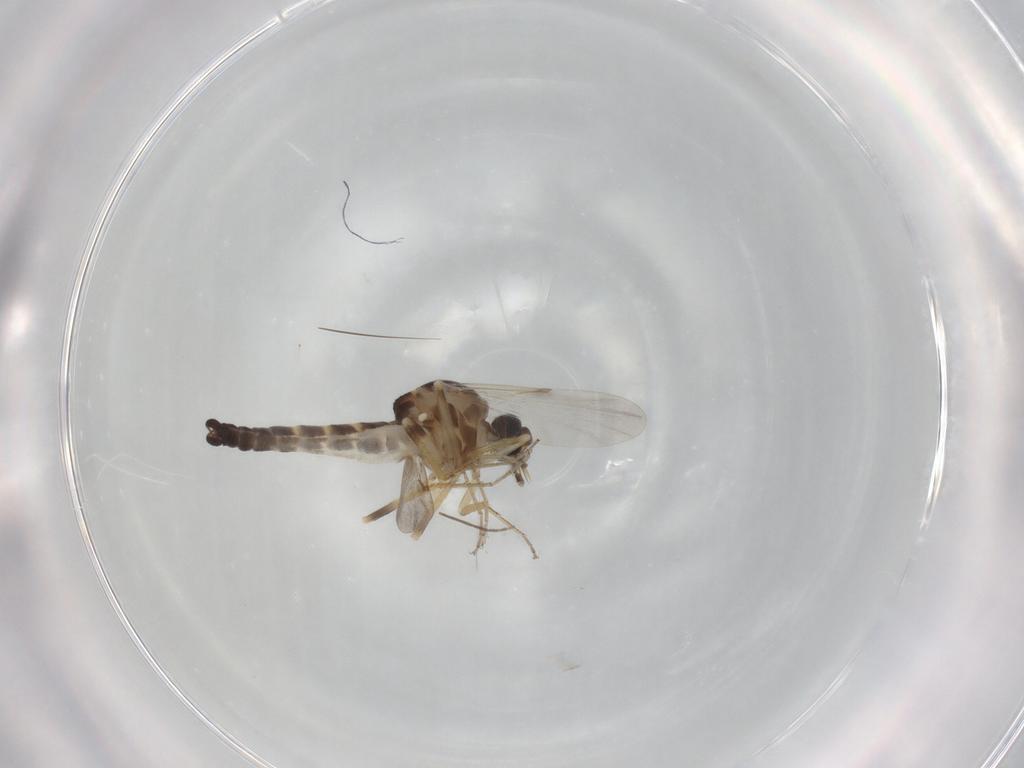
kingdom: Animalia
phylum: Arthropoda
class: Insecta
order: Diptera
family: Ceratopogonidae
